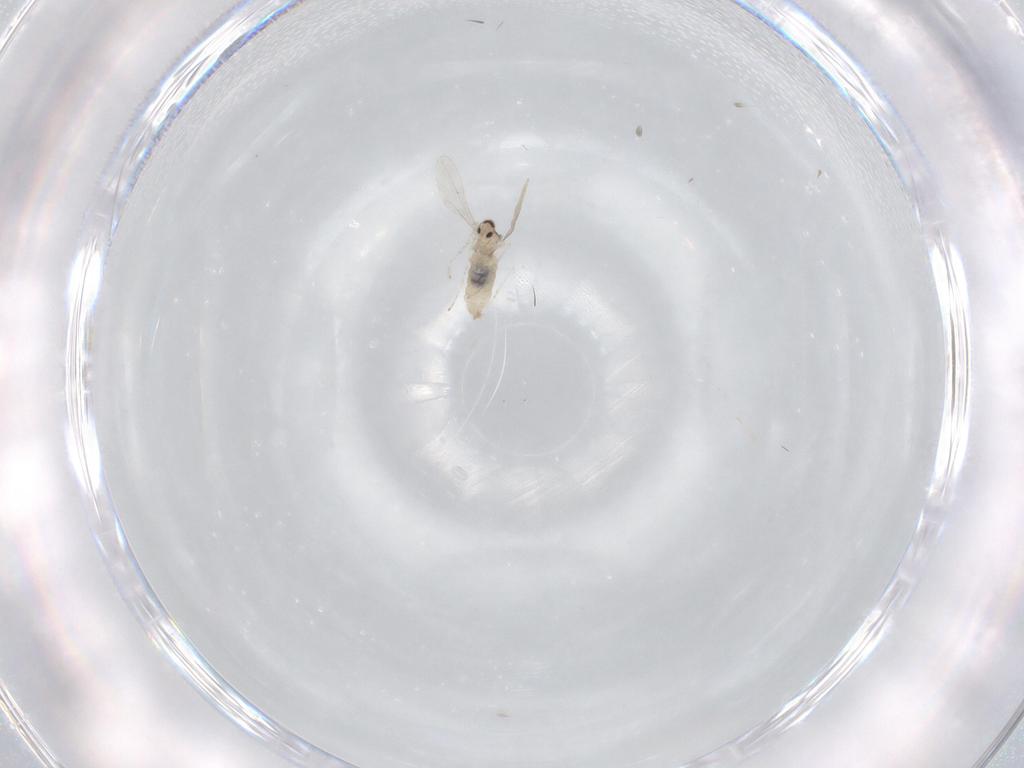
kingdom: Animalia
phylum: Arthropoda
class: Insecta
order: Diptera
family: Cecidomyiidae
